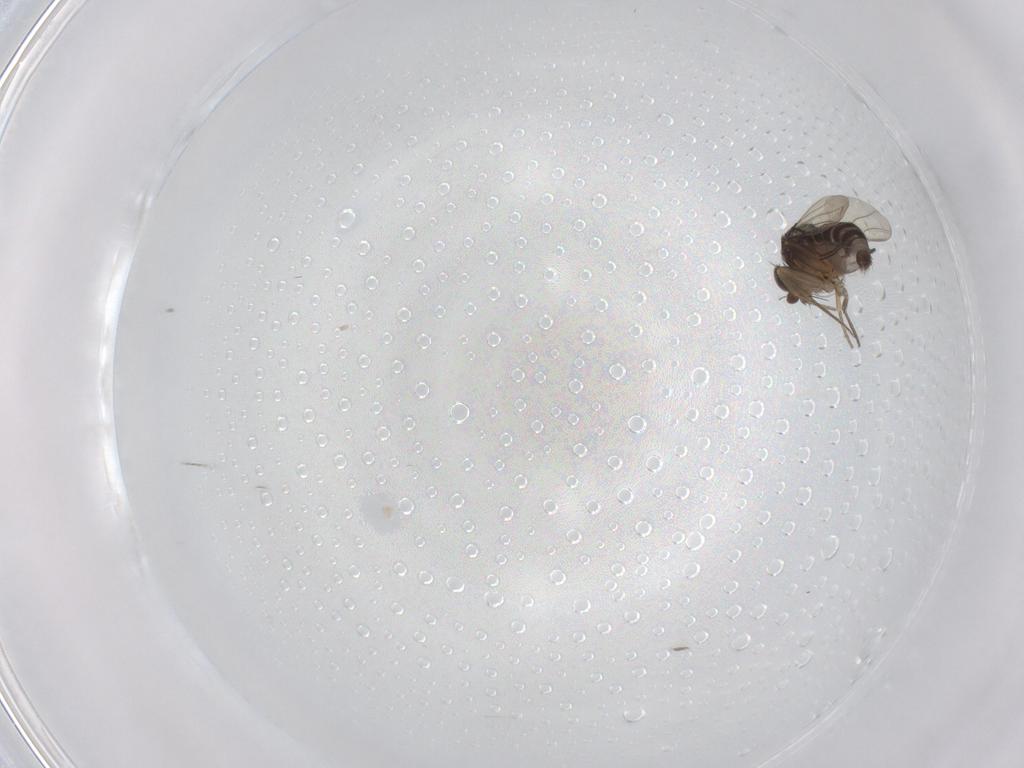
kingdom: Animalia
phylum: Arthropoda
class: Insecta
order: Diptera
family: Phoridae
